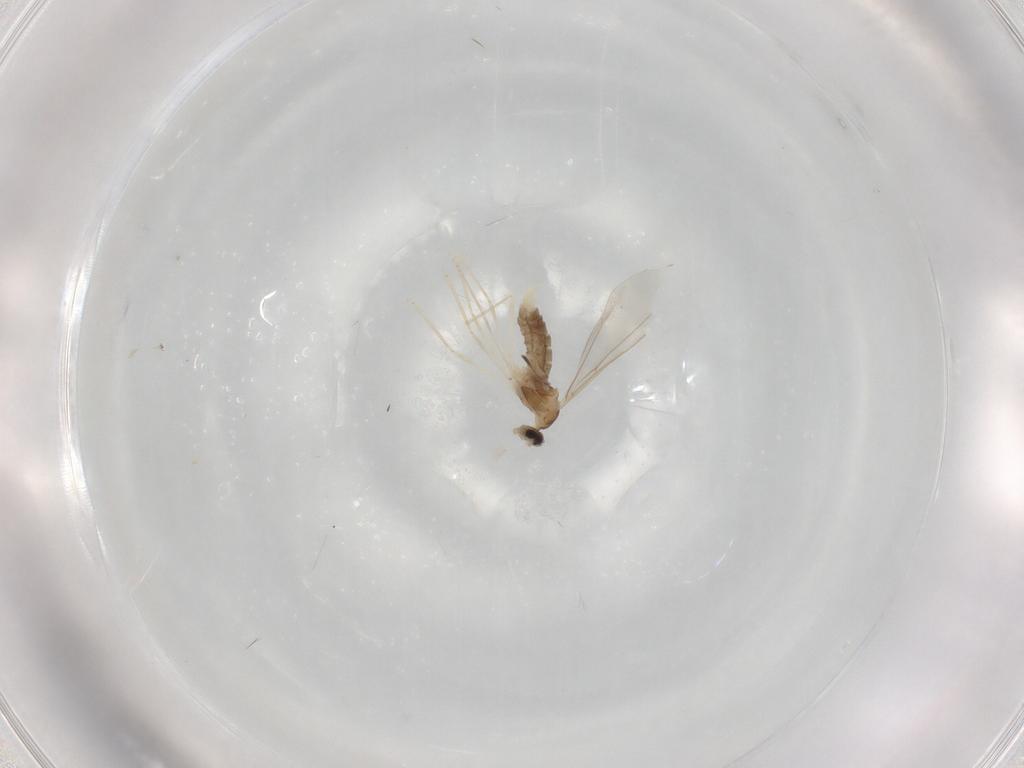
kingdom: Animalia
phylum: Arthropoda
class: Insecta
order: Diptera
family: Cecidomyiidae
